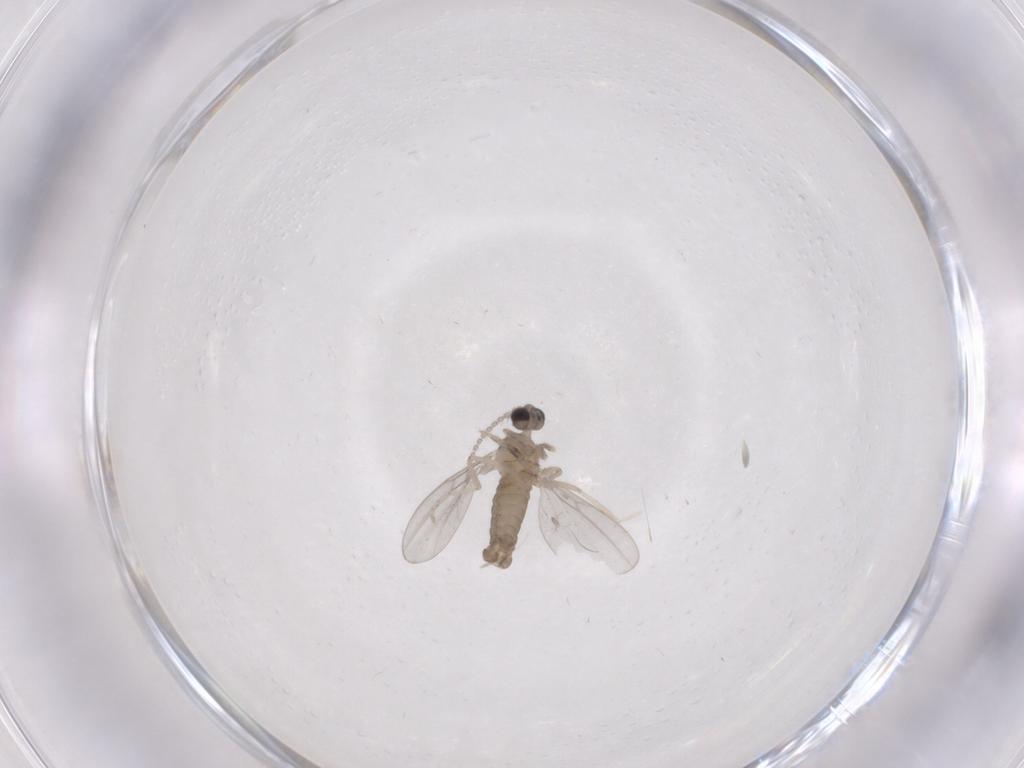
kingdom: Animalia
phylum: Arthropoda
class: Insecta
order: Diptera
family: Cecidomyiidae
